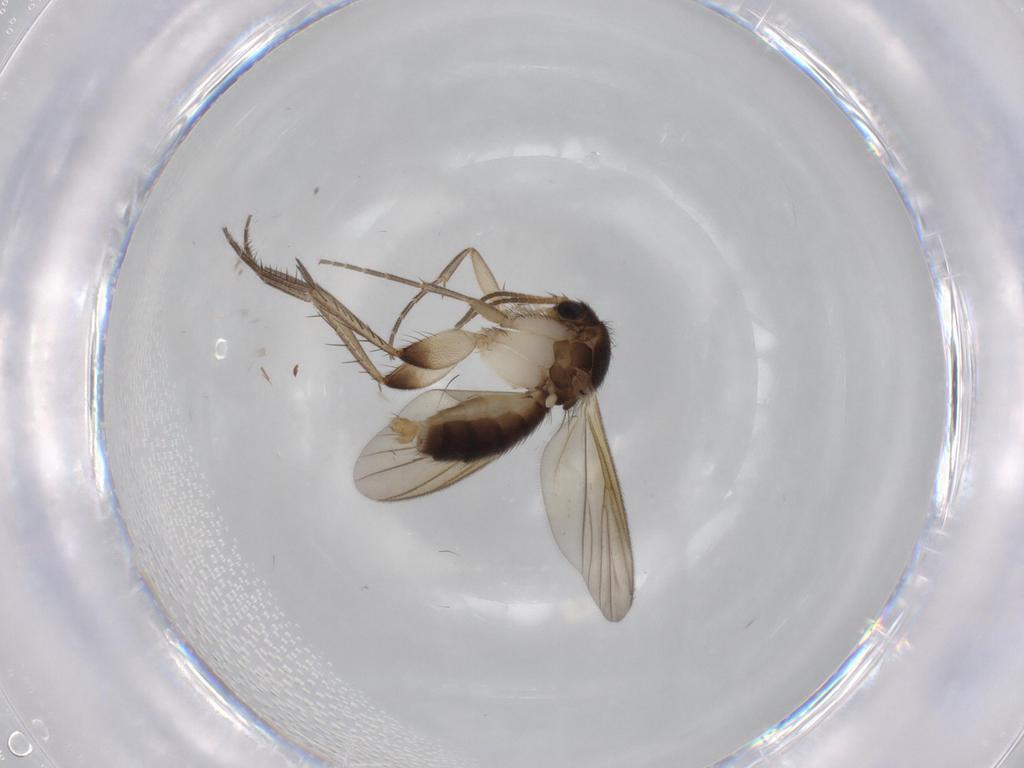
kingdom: Animalia
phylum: Arthropoda
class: Insecta
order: Diptera
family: Mycetophilidae
